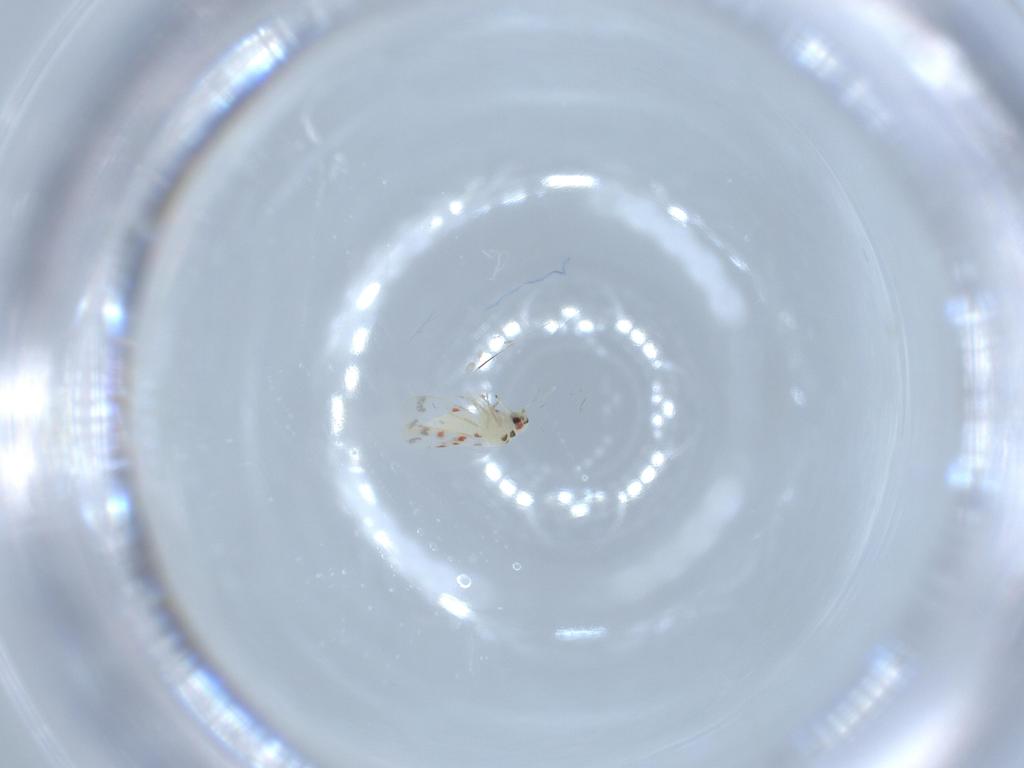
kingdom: Animalia
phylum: Arthropoda
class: Insecta
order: Hemiptera
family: Aleyrodidae
